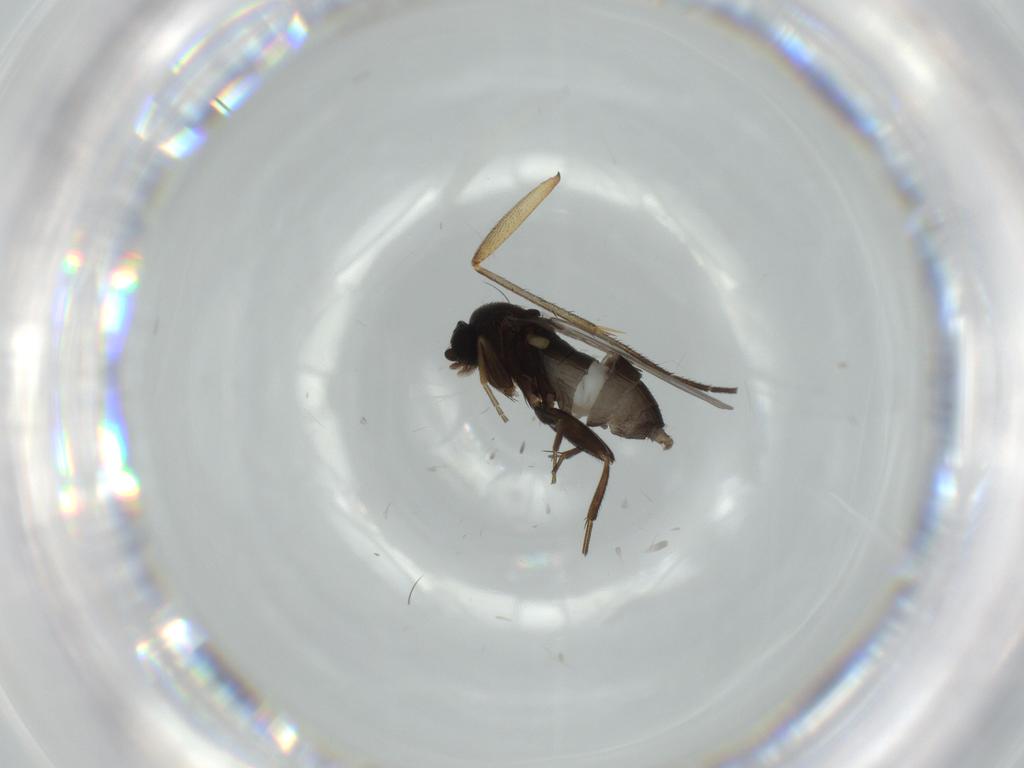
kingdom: Animalia
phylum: Arthropoda
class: Insecta
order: Diptera
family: Phoridae
